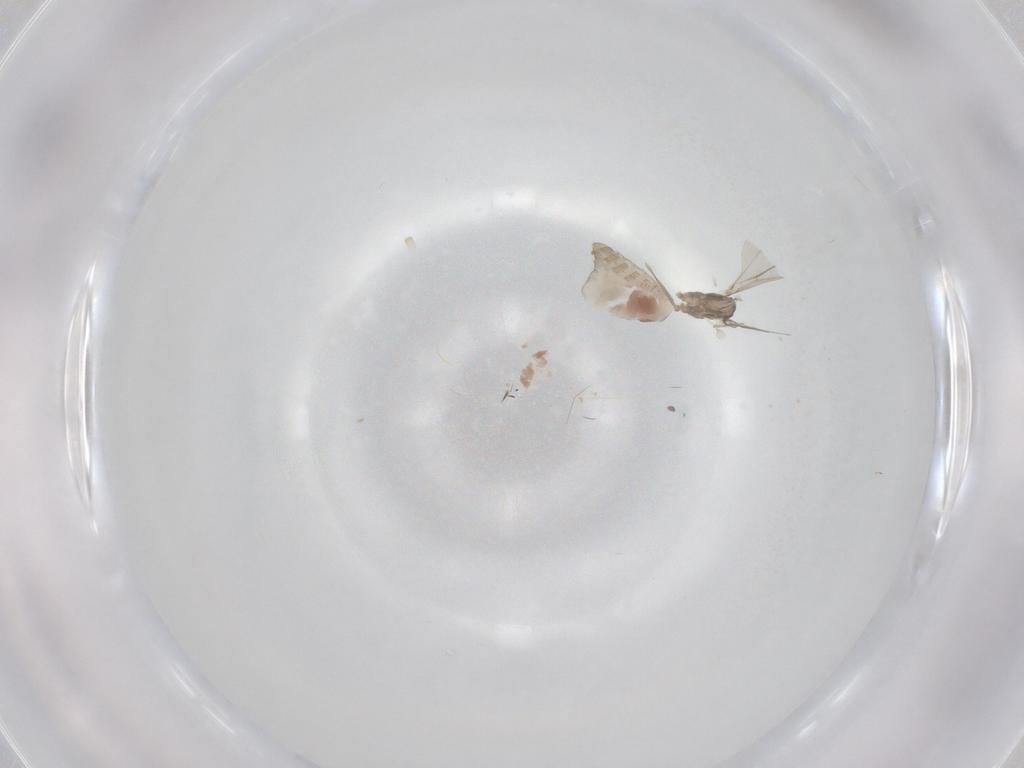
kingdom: Animalia
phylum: Arthropoda
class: Insecta
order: Diptera
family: Cecidomyiidae
